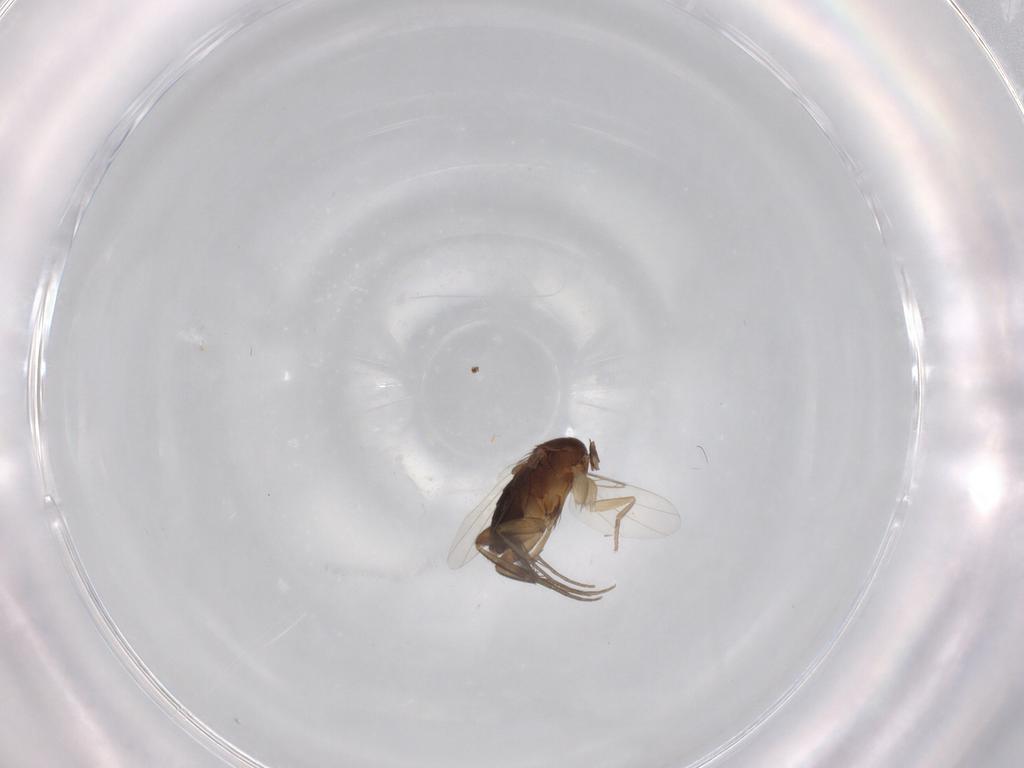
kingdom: Animalia
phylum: Arthropoda
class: Insecta
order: Diptera
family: Phoridae
